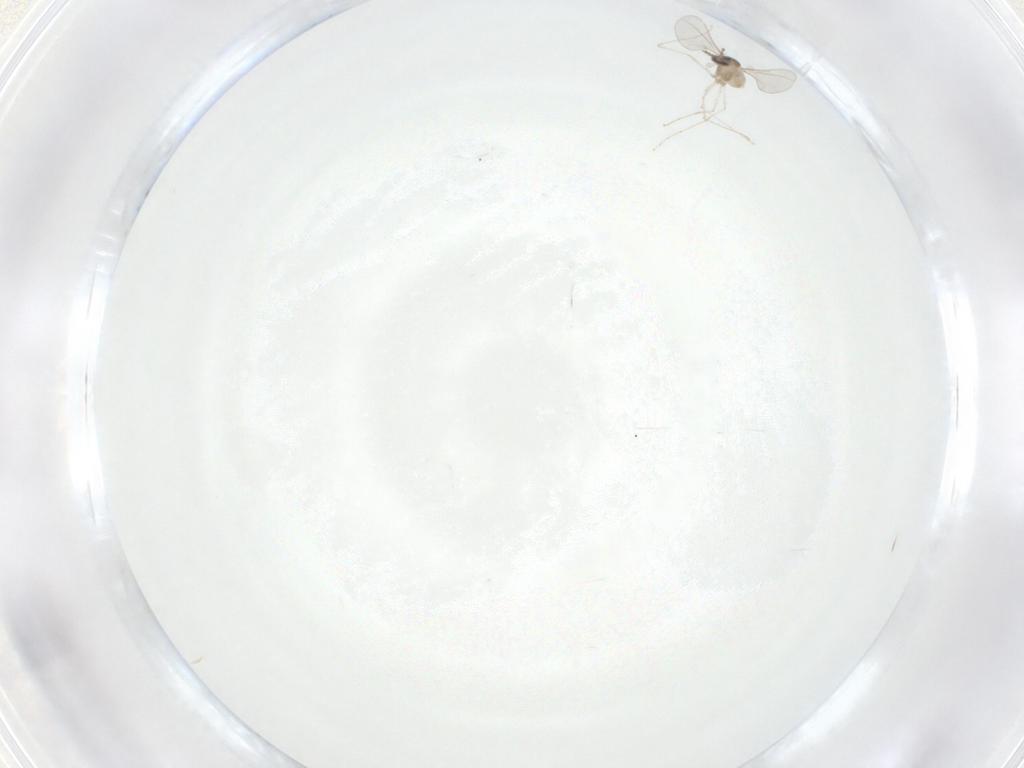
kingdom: Animalia
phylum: Arthropoda
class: Insecta
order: Diptera
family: Cecidomyiidae
